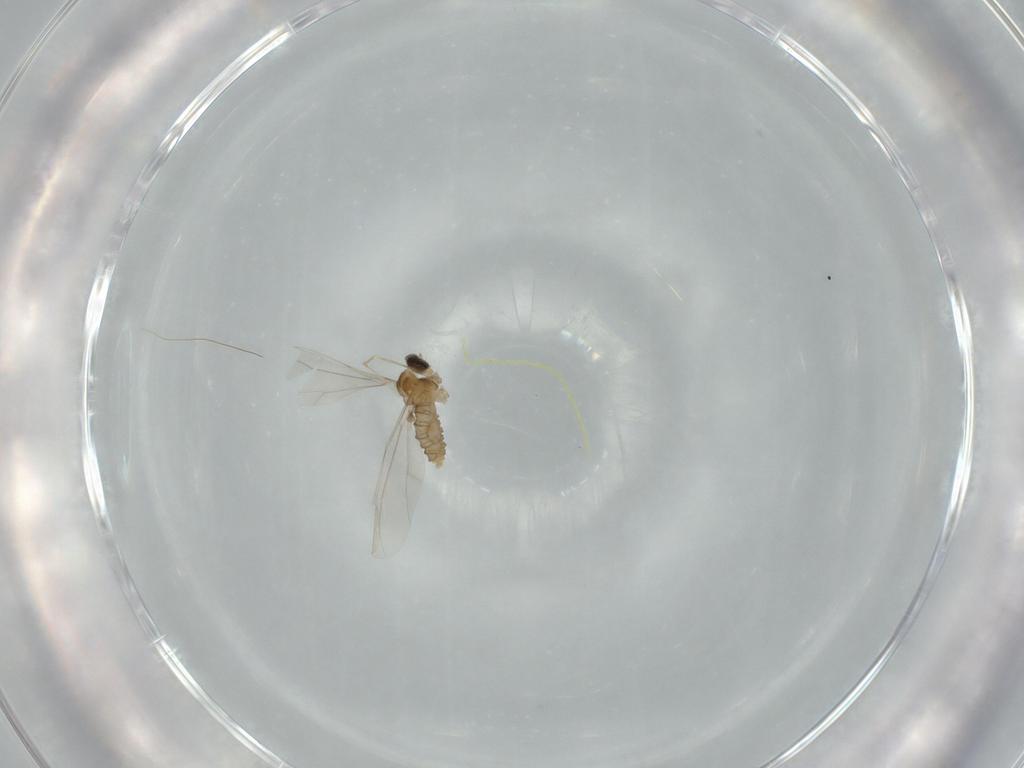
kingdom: Animalia
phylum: Arthropoda
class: Insecta
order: Diptera
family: Cecidomyiidae
